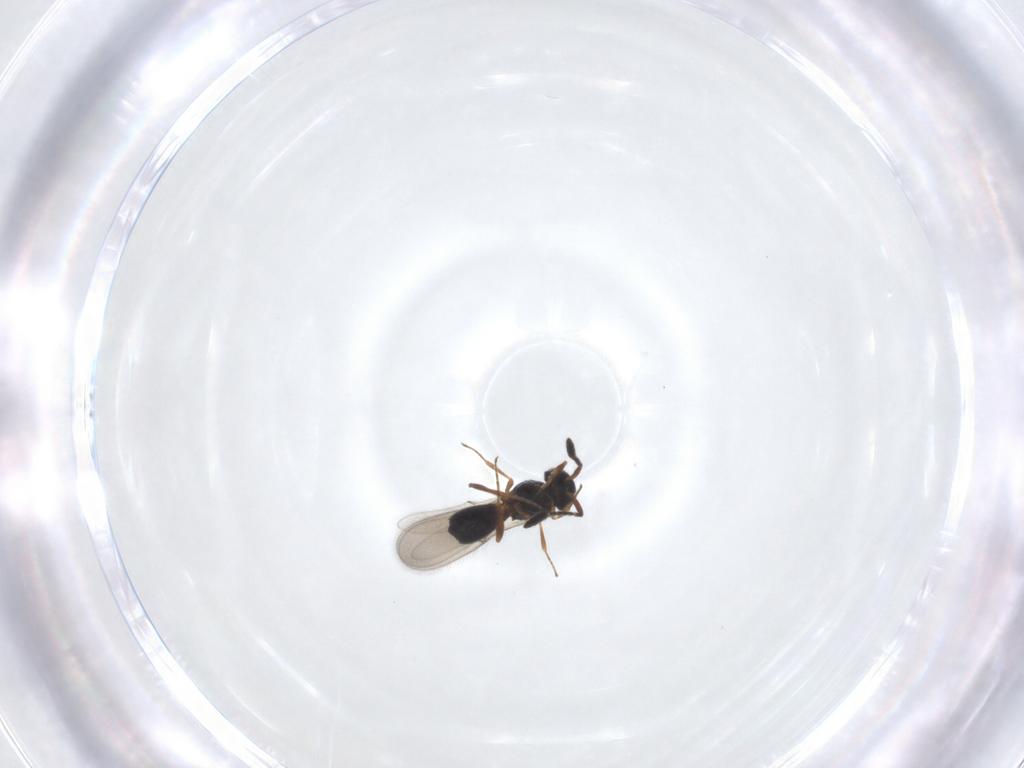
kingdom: Animalia
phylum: Arthropoda
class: Insecta
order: Hymenoptera
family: Scelionidae
